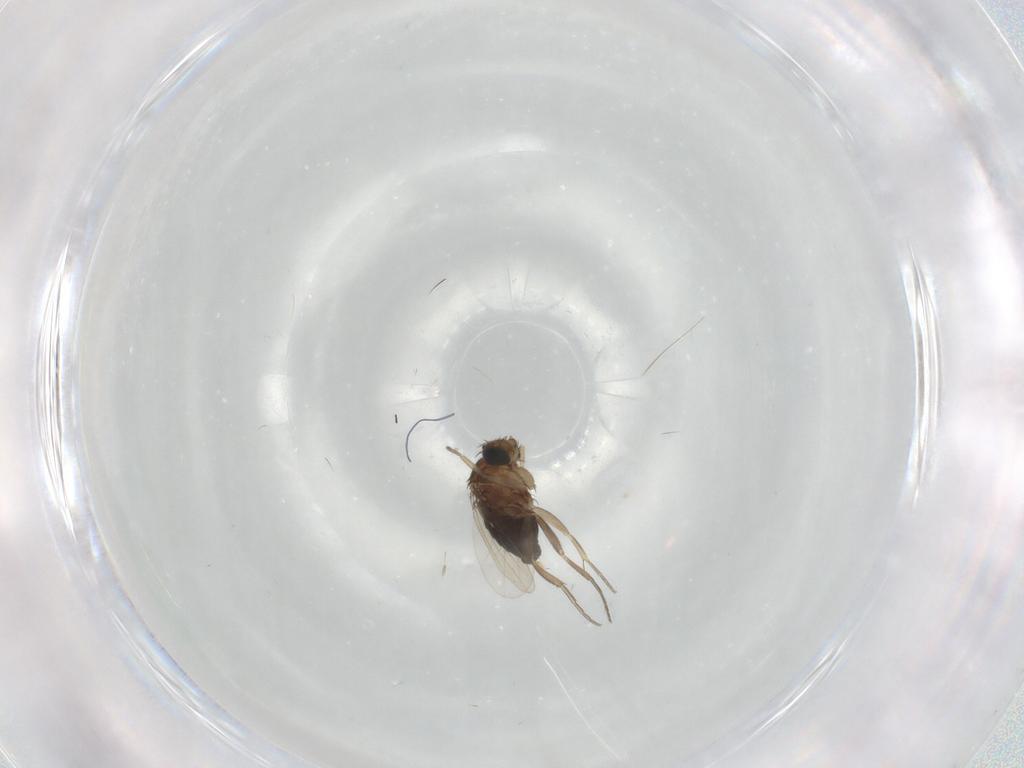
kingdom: Animalia
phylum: Arthropoda
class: Insecta
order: Diptera
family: Phoridae
